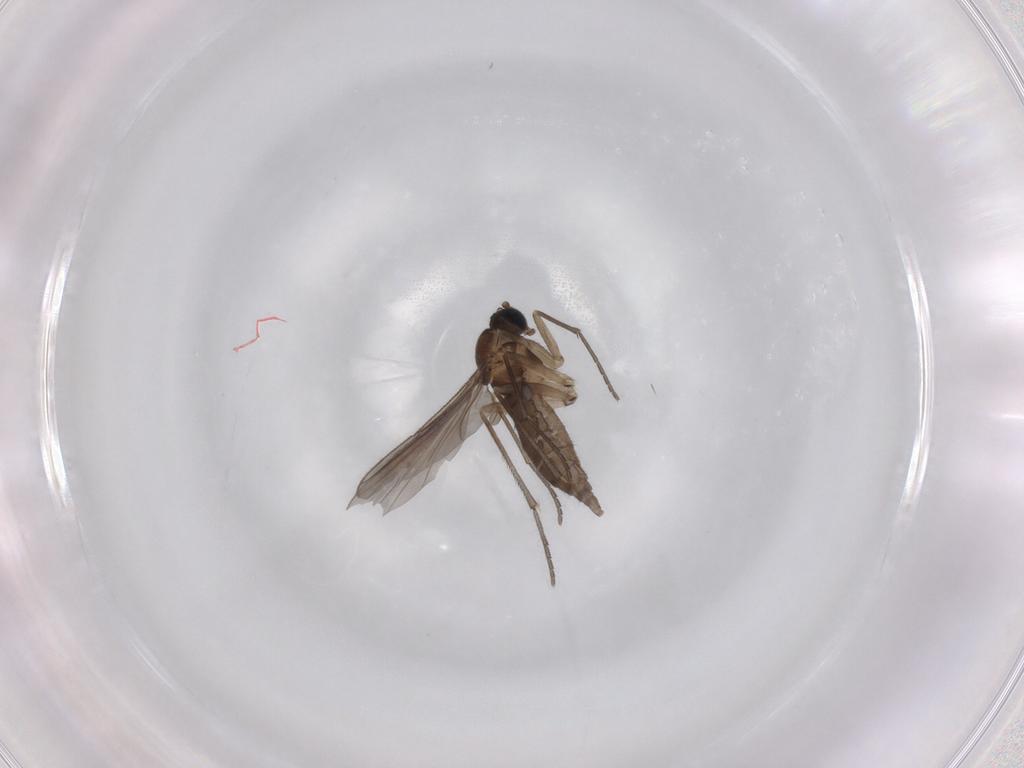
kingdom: Animalia
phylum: Arthropoda
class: Insecta
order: Diptera
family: Sciaridae
